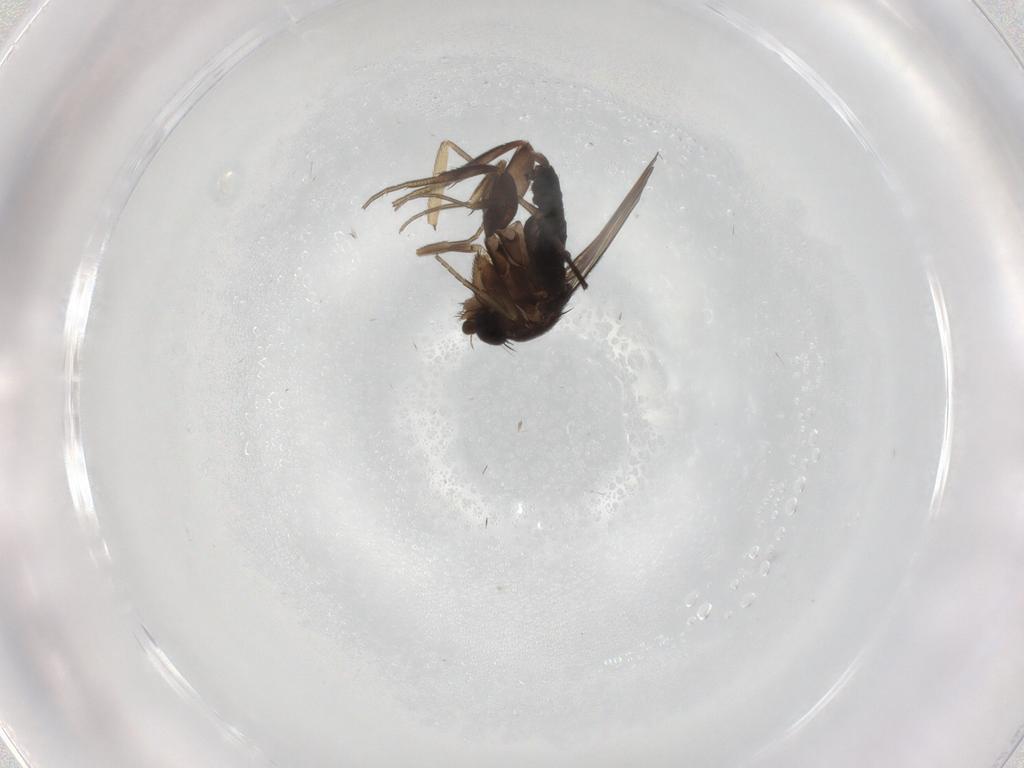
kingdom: Animalia
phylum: Arthropoda
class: Insecta
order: Diptera
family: Phoridae
